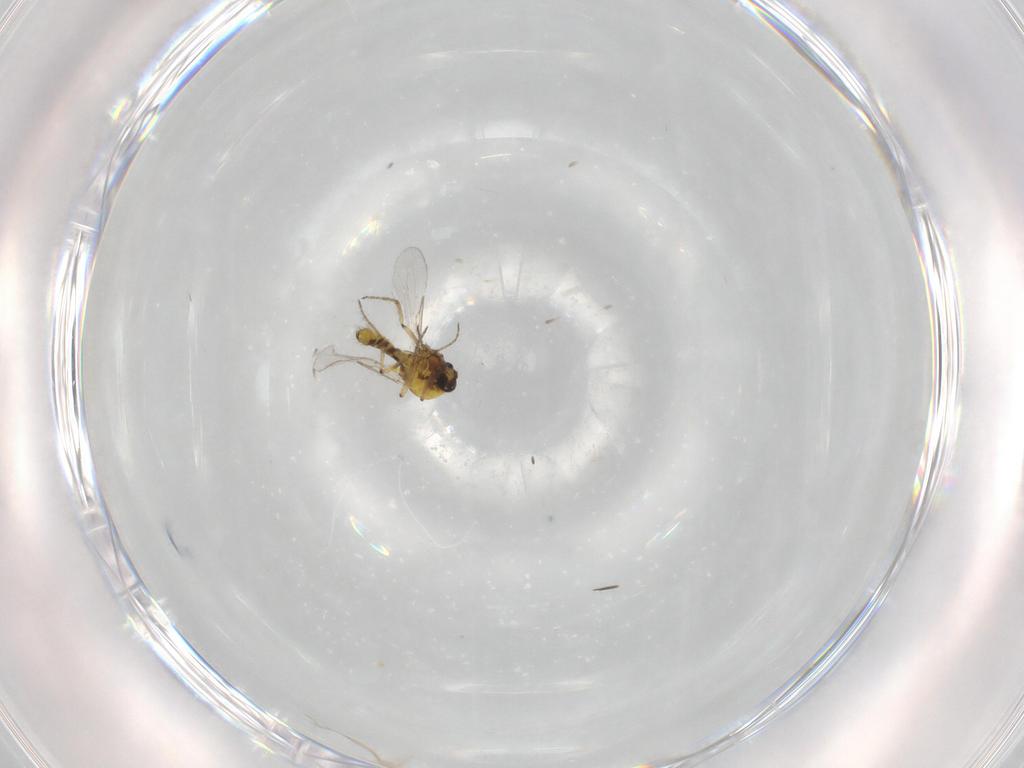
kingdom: Animalia
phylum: Arthropoda
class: Insecta
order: Diptera
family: Ceratopogonidae
